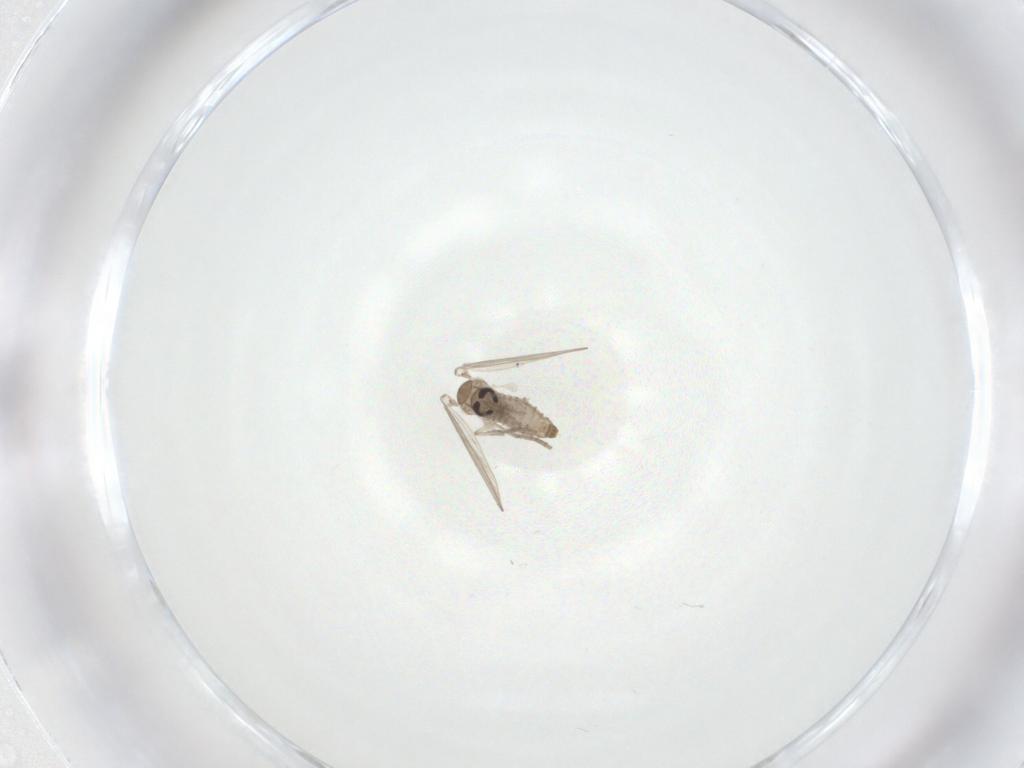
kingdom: Animalia
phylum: Arthropoda
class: Insecta
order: Diptera
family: Psychodidae
